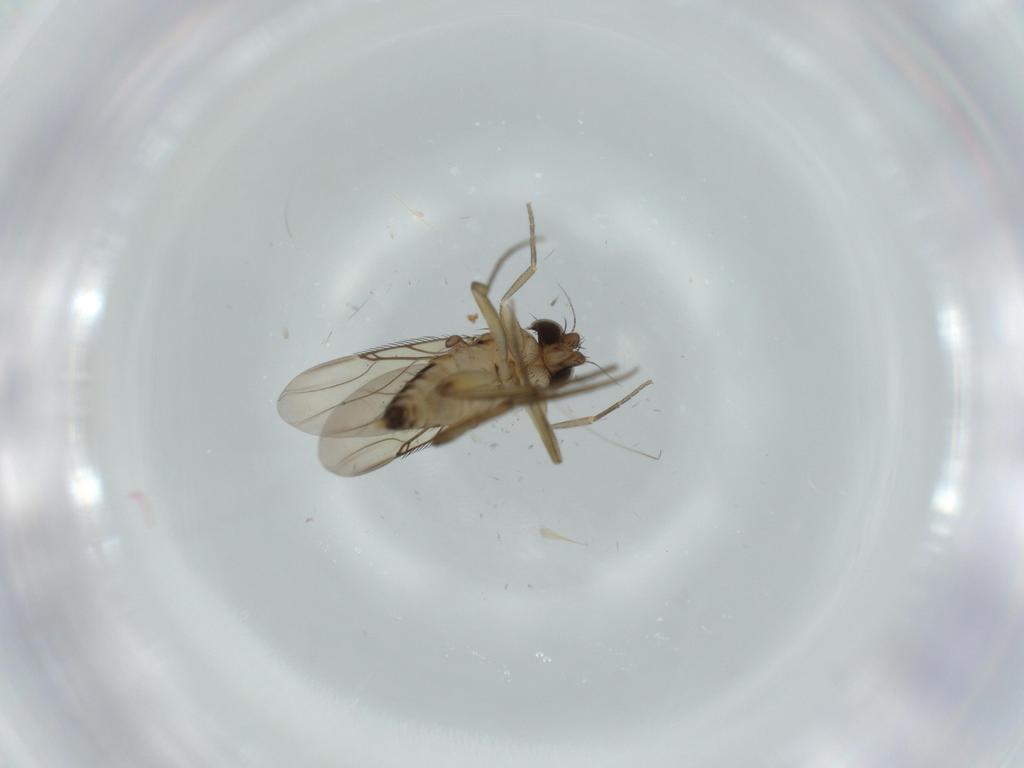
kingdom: Animalia
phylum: Arthropoda
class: Insecta
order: Diptera
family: Phoridae
